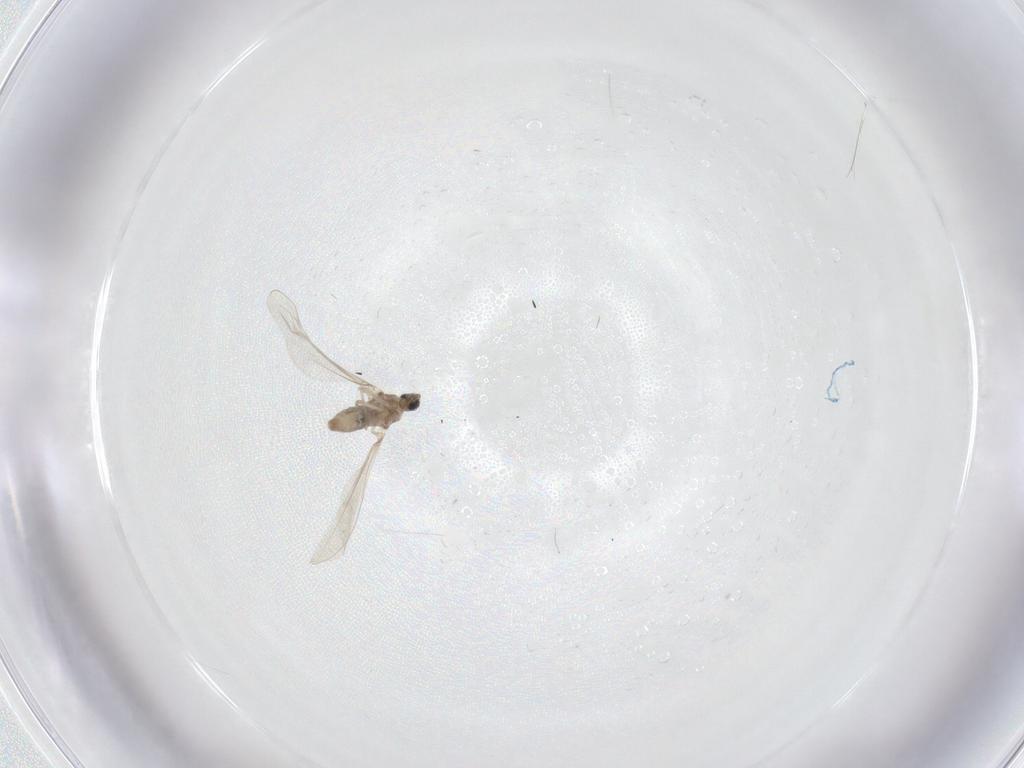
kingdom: Animalia
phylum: Arthropoda
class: Insecta
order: Diptera
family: Cecidomyiidae
